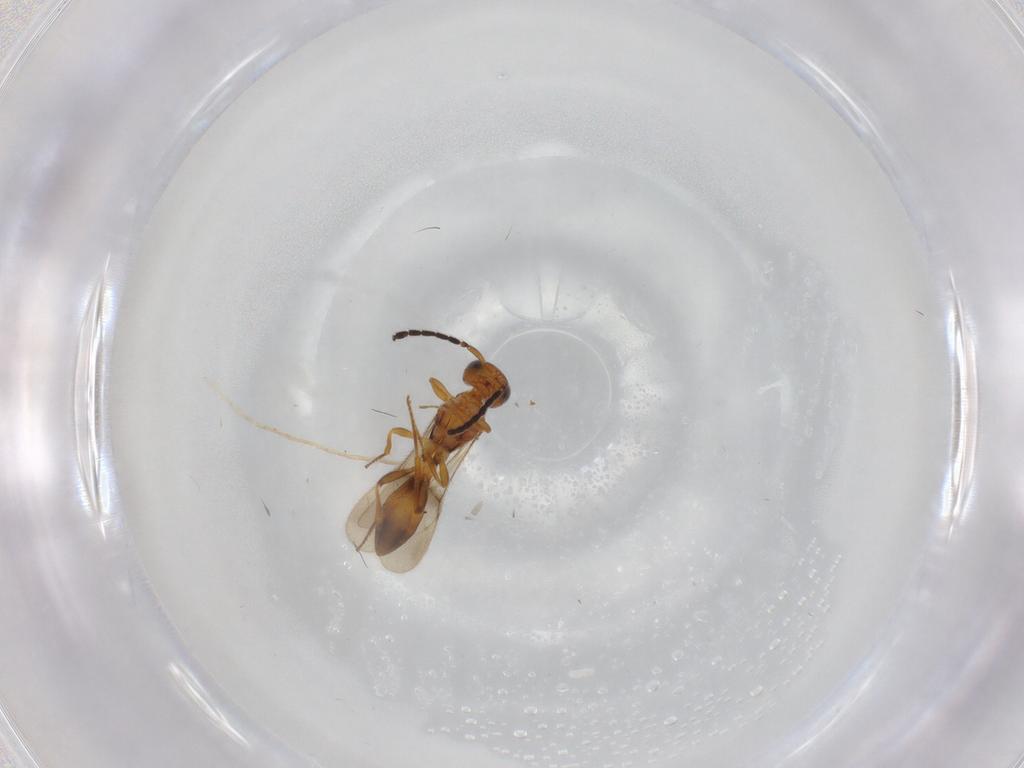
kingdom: Animalia
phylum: Arthropoda
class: Insecta
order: Hymenoptera
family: Scelionidae
